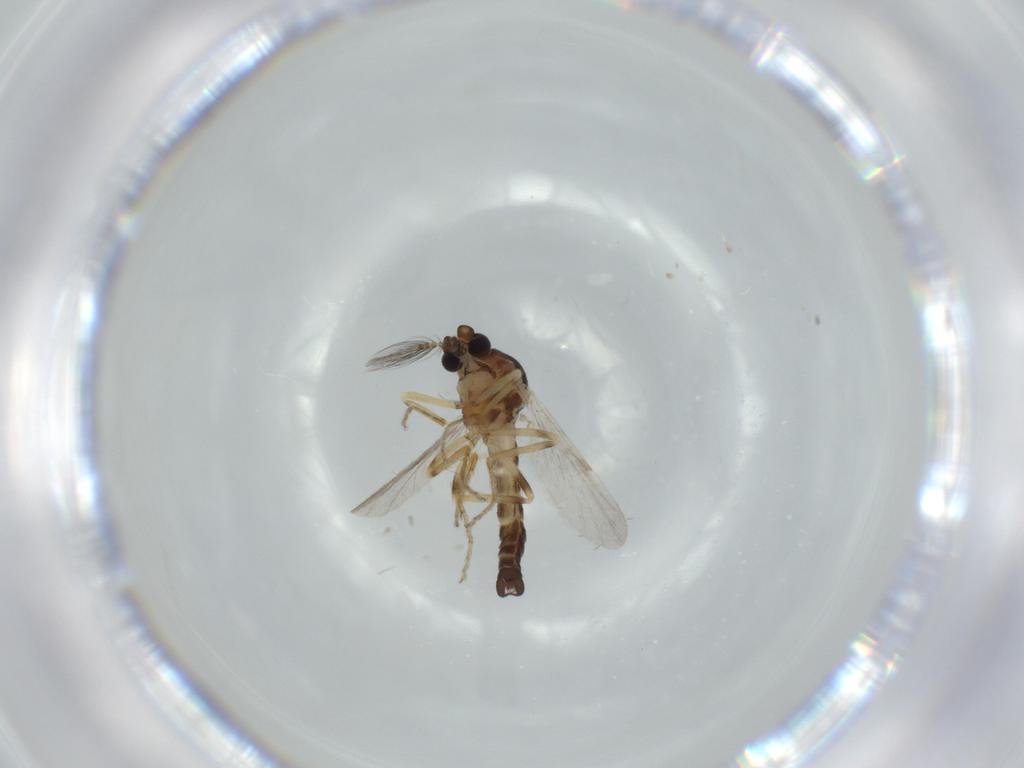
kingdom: Animalia
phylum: Arthropoda
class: Insecta
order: Diptera
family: Ceratopogonidae
